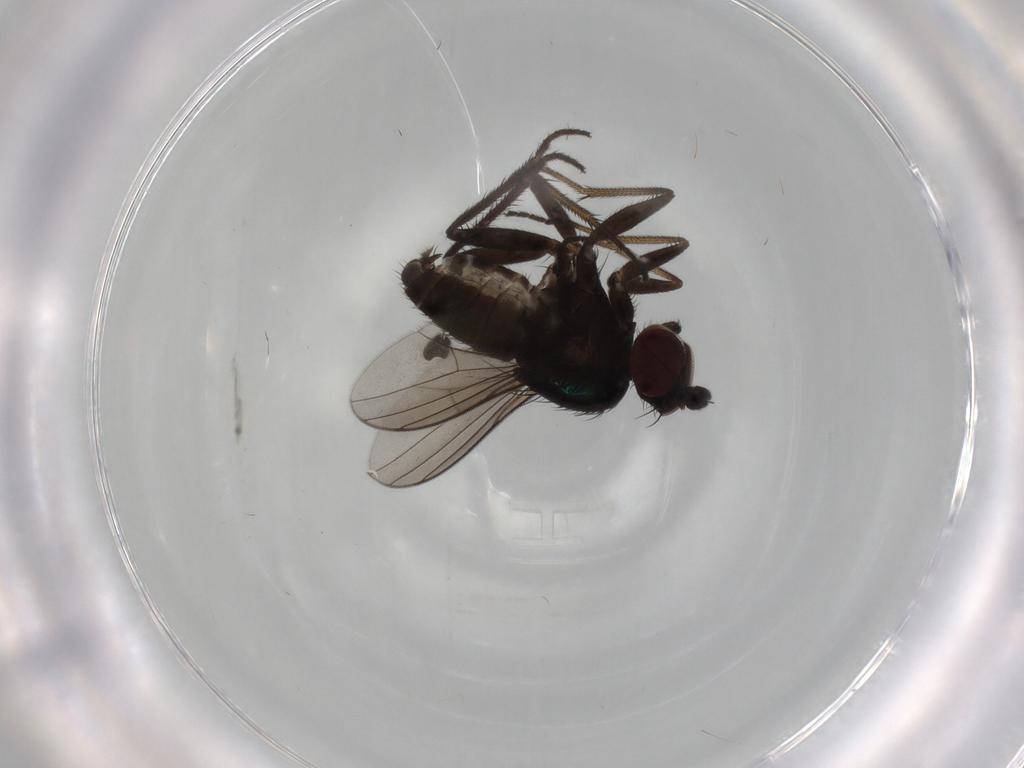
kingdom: Animalia
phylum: Arthropoda
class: Insecta
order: Diptera
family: Dolichopodidae
